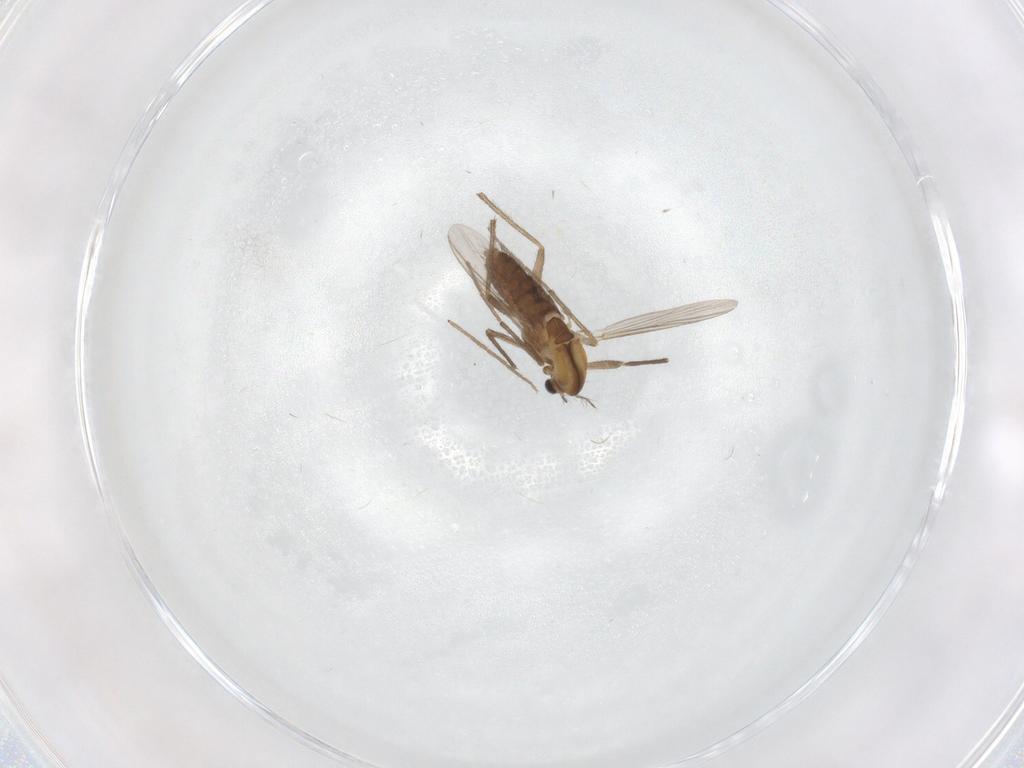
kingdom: Animalia
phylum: Arthropoda
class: Insecta
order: Diptera
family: Chironomidae
